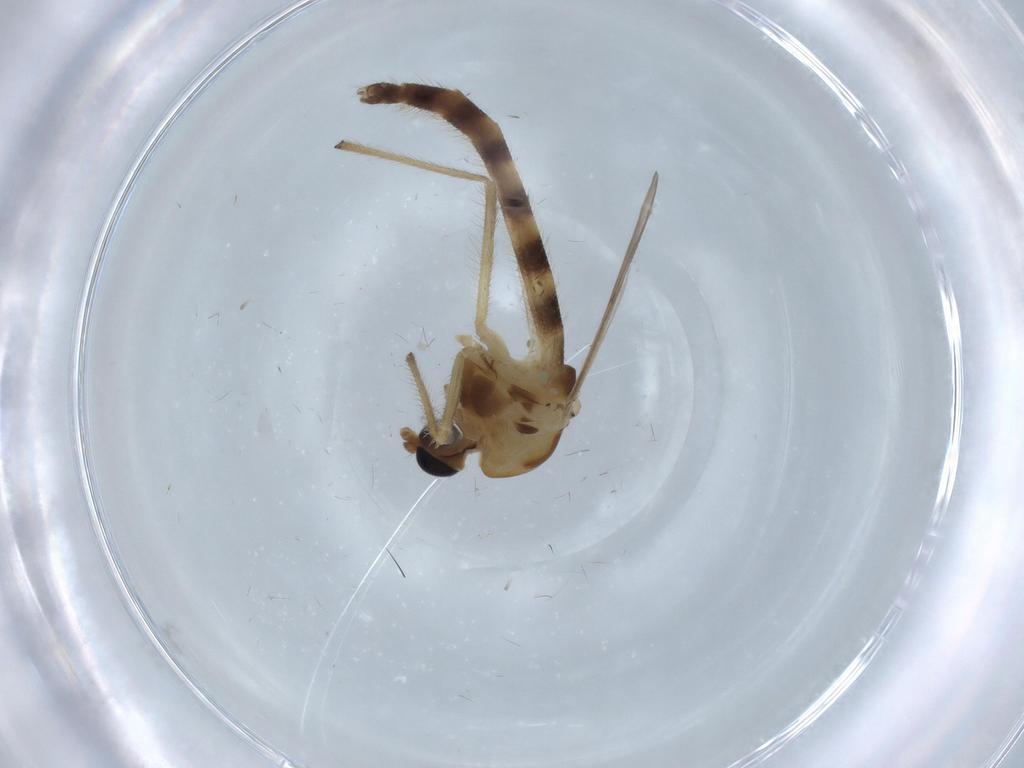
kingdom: Animalia
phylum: Arthropoda
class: Insecta
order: Diptera
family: Chironomidae
